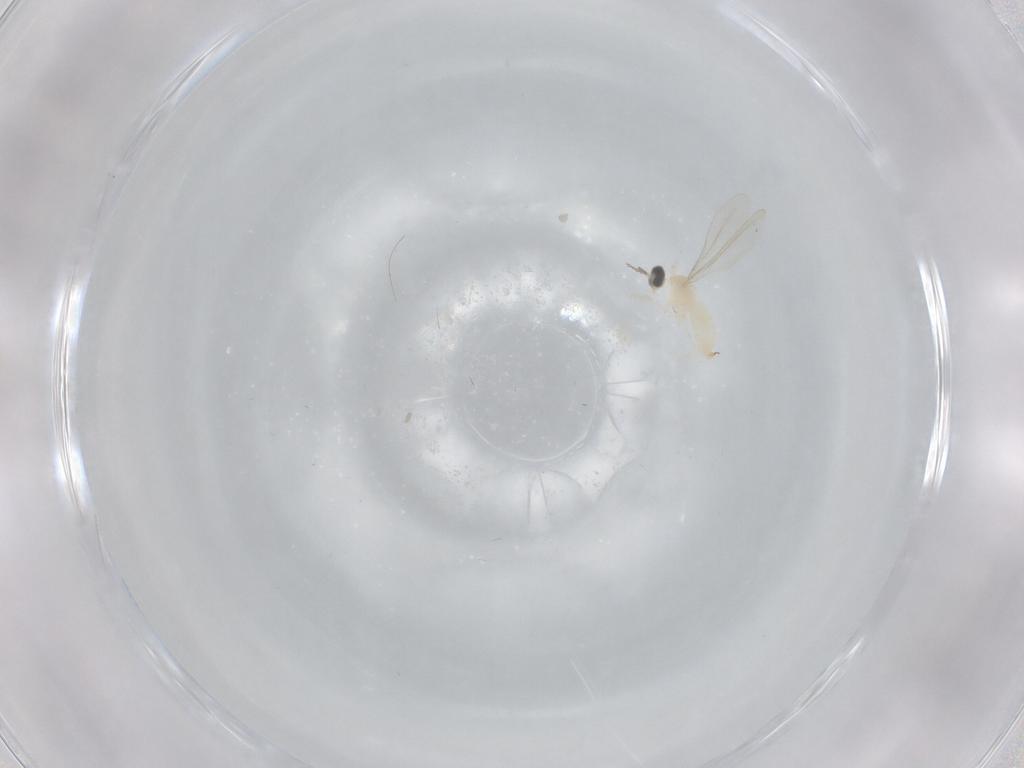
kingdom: Animalia
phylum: Arthropoda
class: Insecta
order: Diptera
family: Cecidomyiidae
